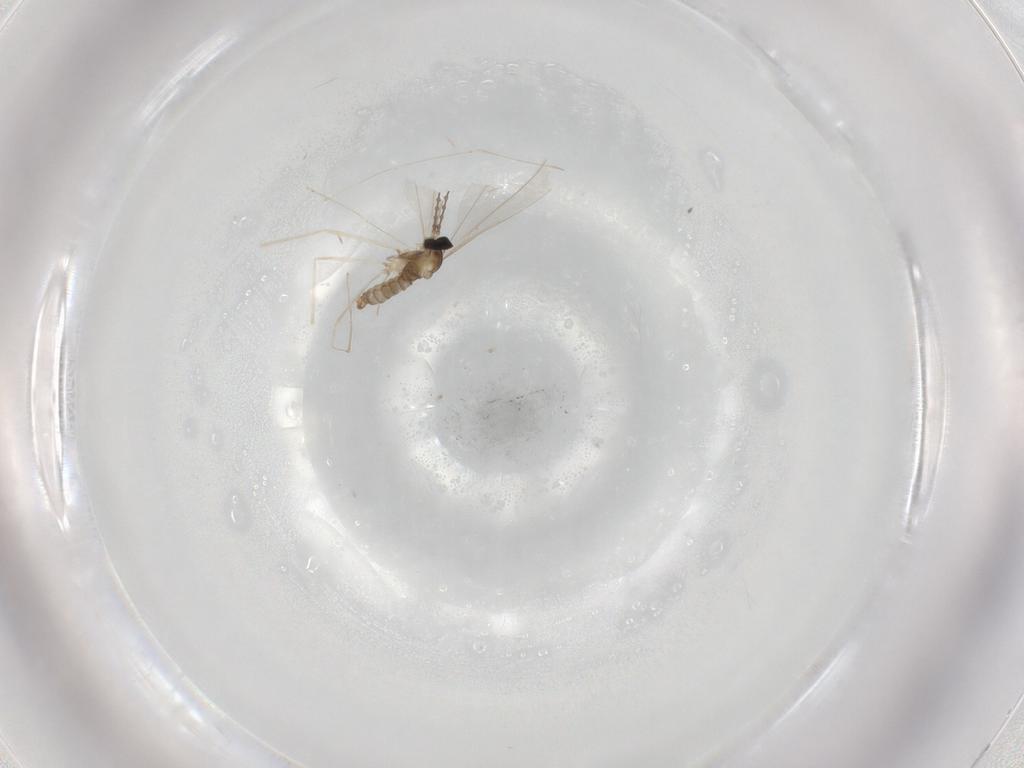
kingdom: Animalia
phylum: Arthropoda
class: Insecta
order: Diptera
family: Cecidomyiidae
